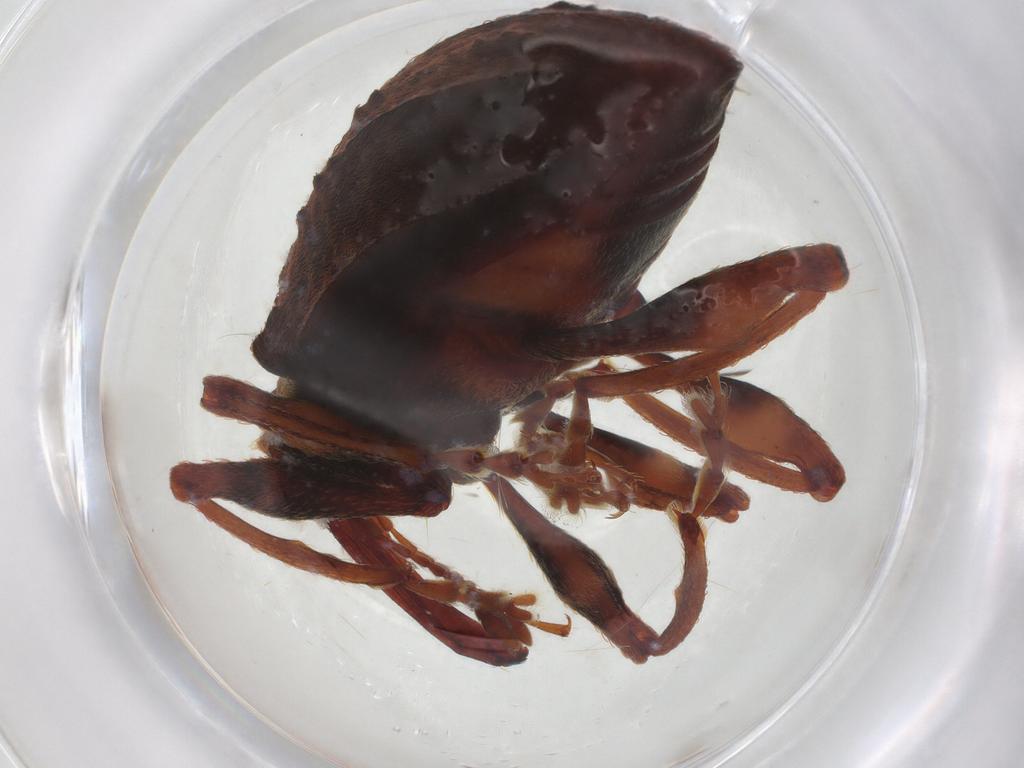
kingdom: Animalia
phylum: Arthropoda
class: Insecta
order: Coleoptera
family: Curculionidae
